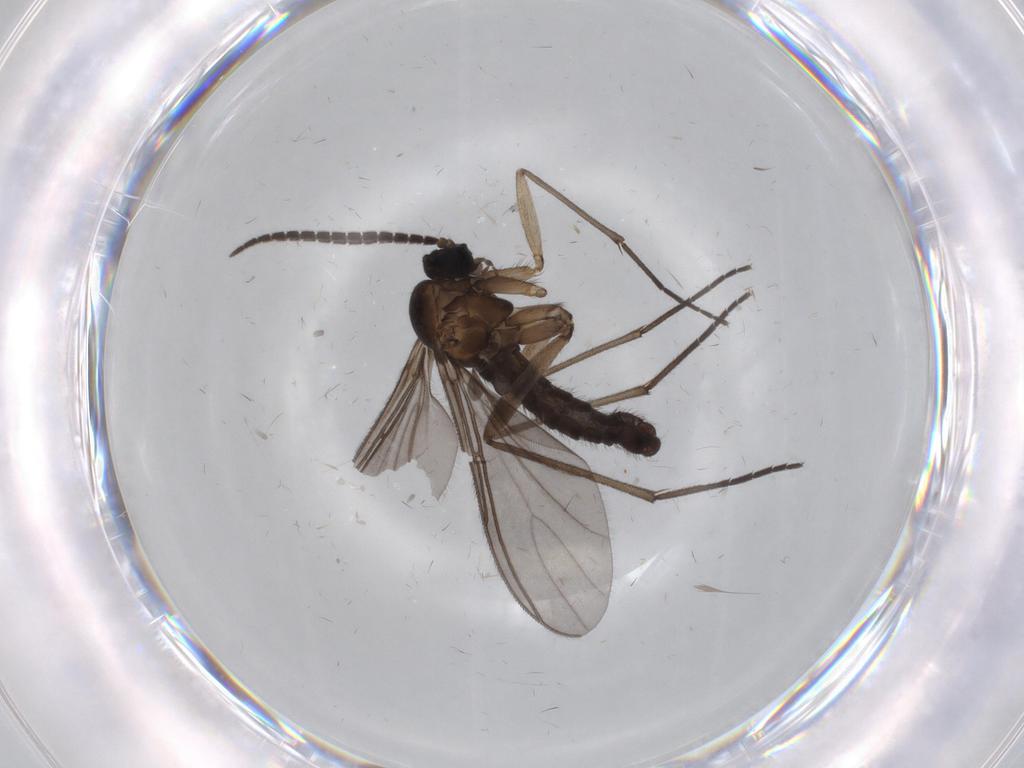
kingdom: Animalia
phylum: Arthropoda
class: Insecta
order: Diptera
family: Sciaridae
